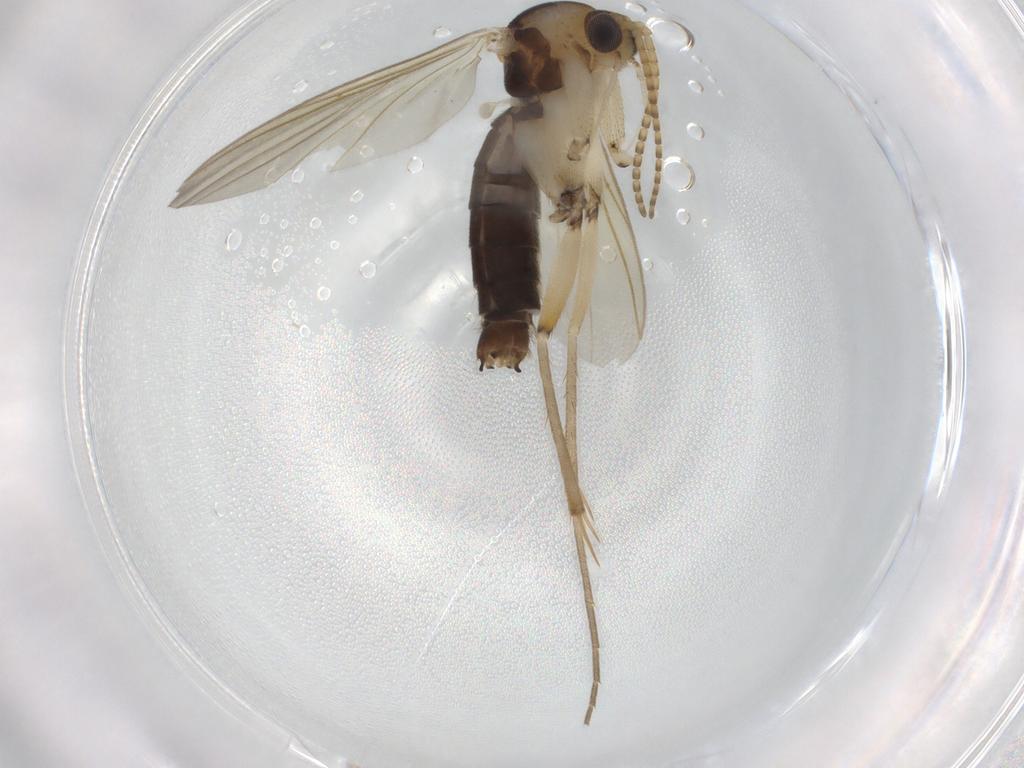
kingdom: Animalia
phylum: Arthropoda
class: Insecta
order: Diptera
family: Mycetophilidae
